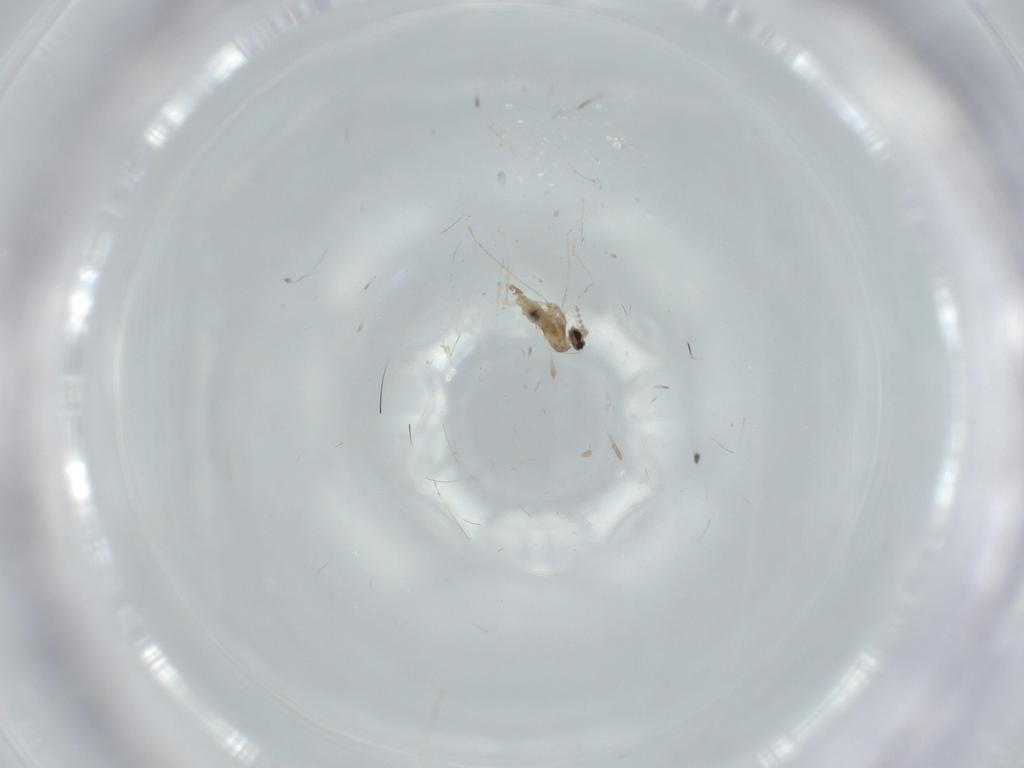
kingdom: Animalia
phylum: Arthropoda
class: Insecta
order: Diptera
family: Cecidomyiidae
